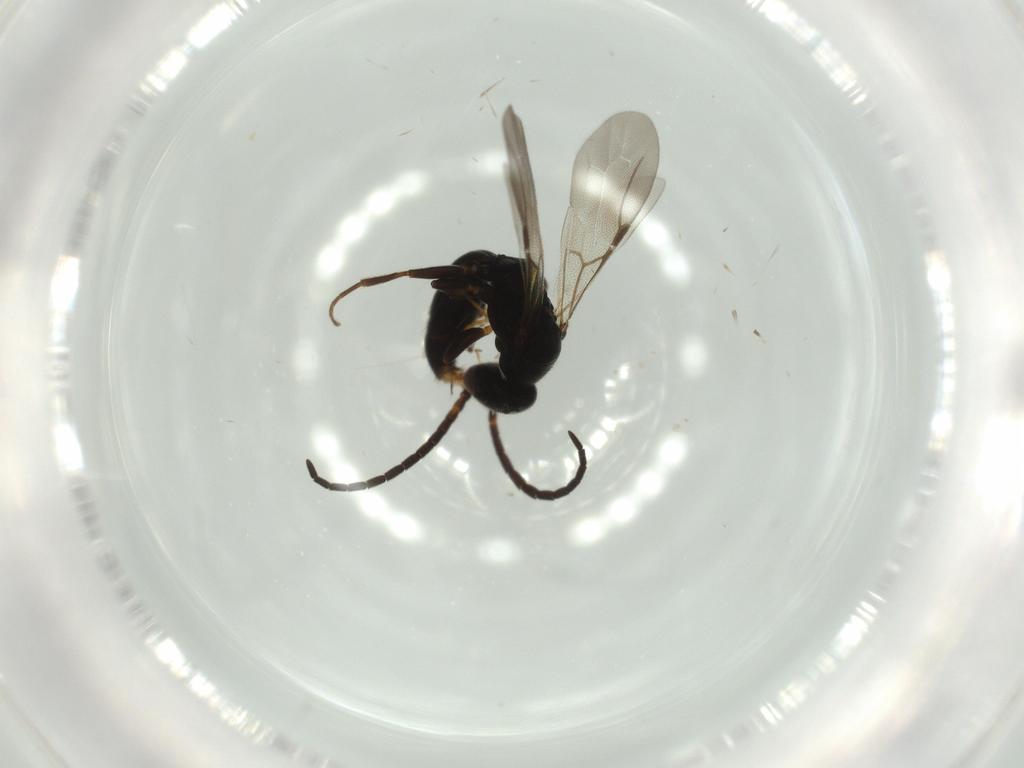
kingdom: Animalia
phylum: Arthropoda
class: Insecta
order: Hymenoptera
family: Bethylidae
